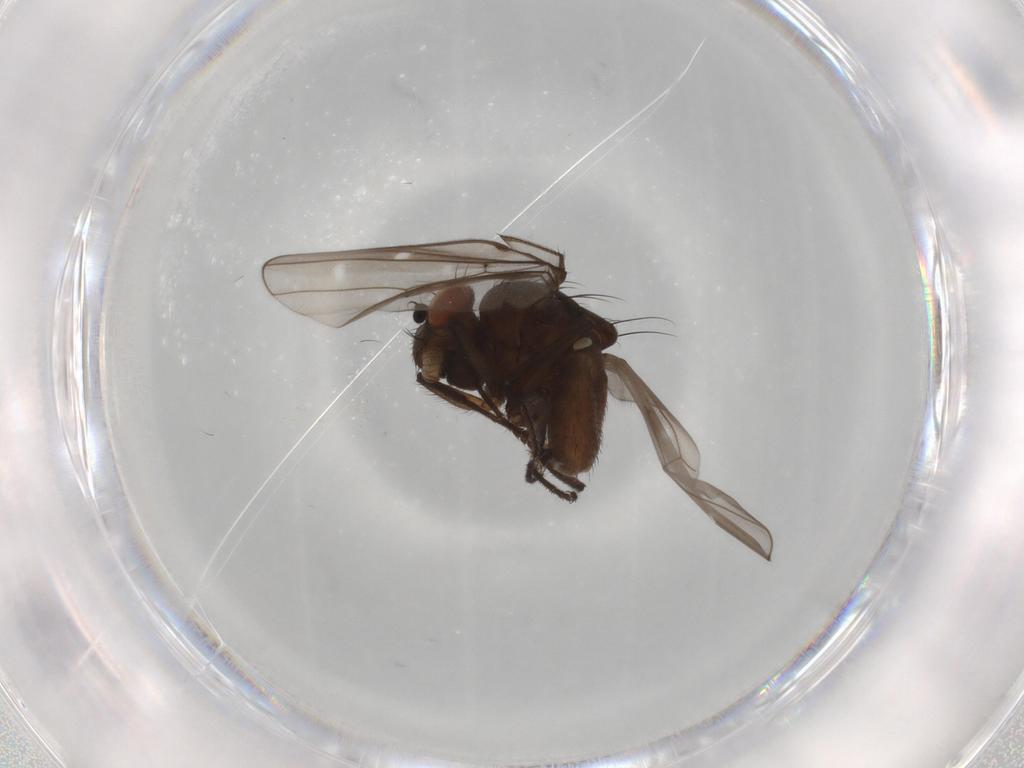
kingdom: Animalia
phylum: Arthropoda
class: Insecta
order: Diptera
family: Ephydridae
